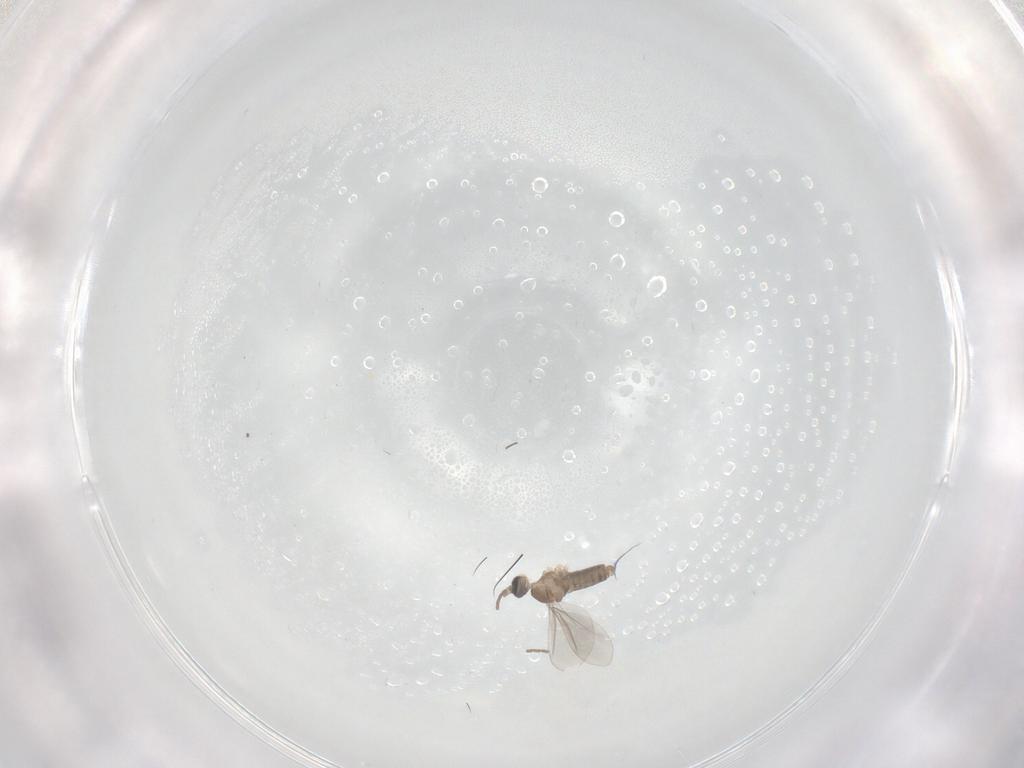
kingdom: Animalia
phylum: Arthropoda
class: Insecta
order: Diptera
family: Cecidomyiidae
